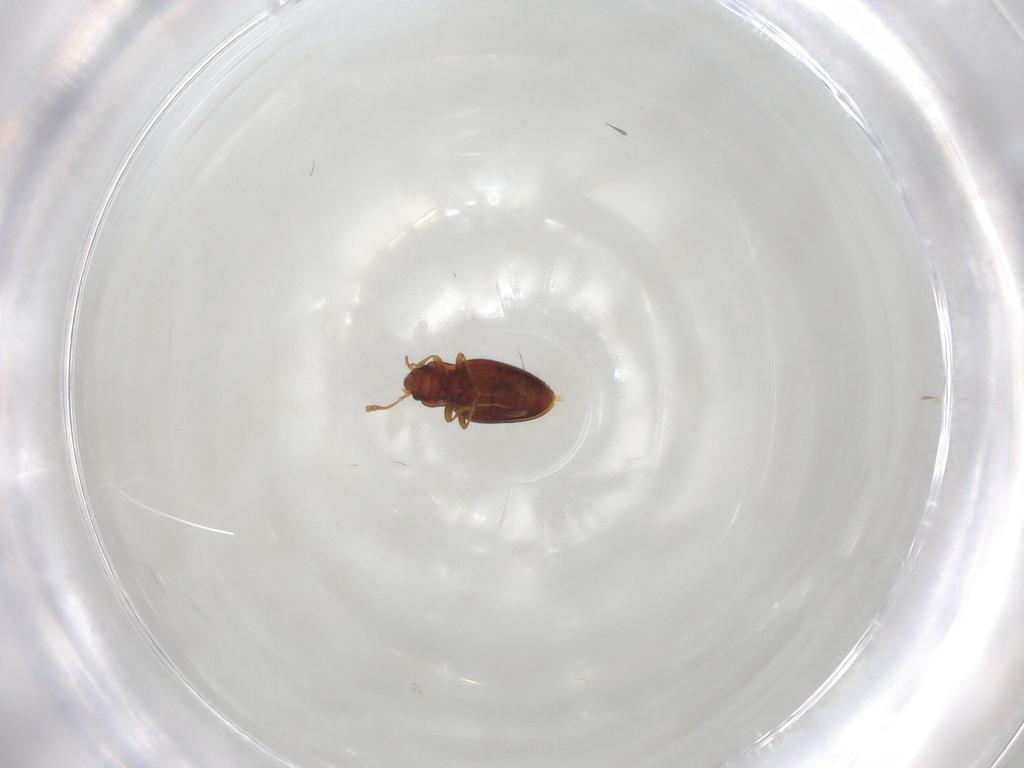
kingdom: Animalia
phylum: Arthropoda
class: Insecta
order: Coleoptera
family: Endomychidae
